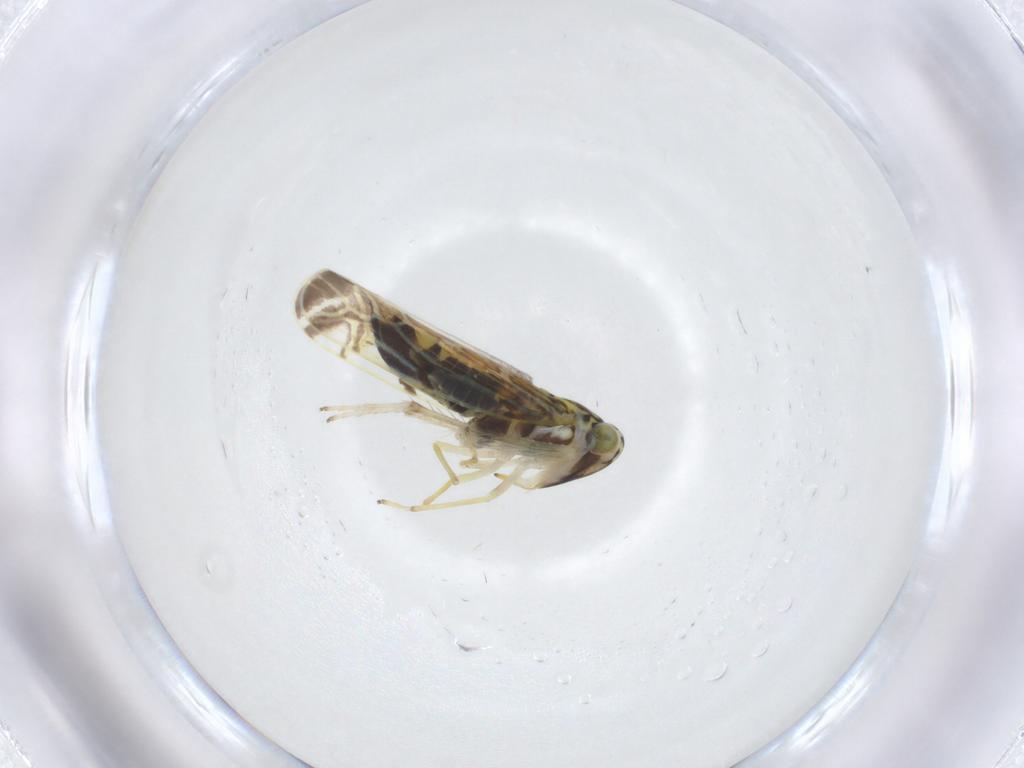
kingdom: Animalia
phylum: Arthropoda
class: Insecta
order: Hemiptera
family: Cicadellidae
